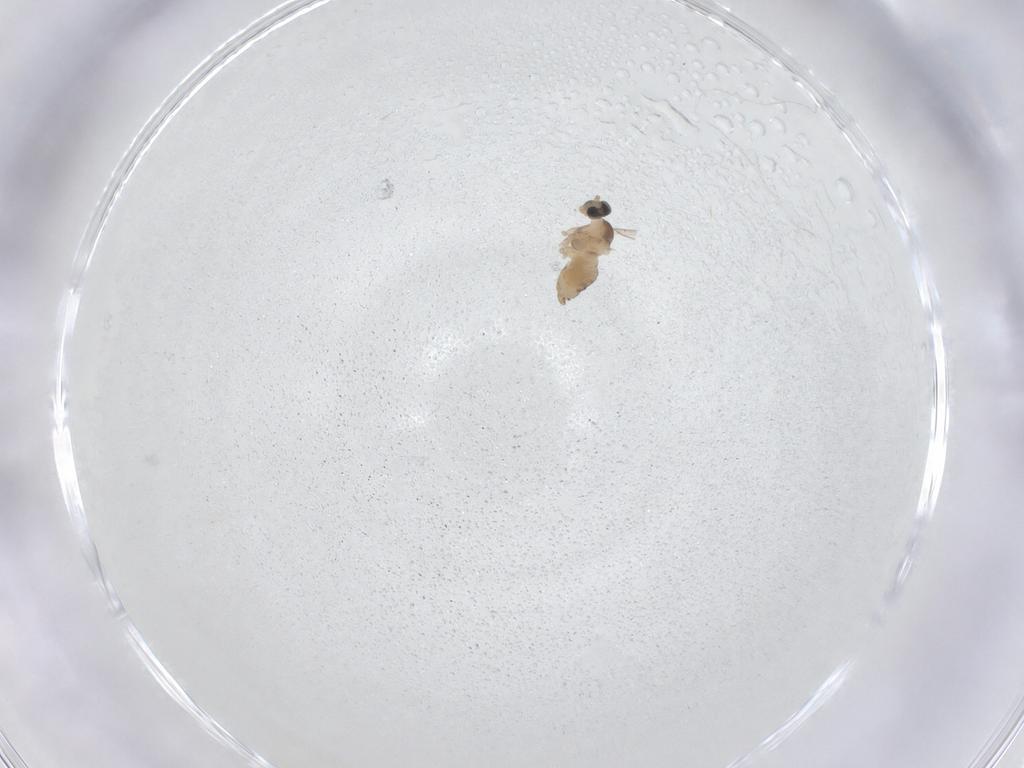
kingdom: Animalia
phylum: Arthropoda
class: Insecta
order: Diptera
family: Cecidomyiidae
